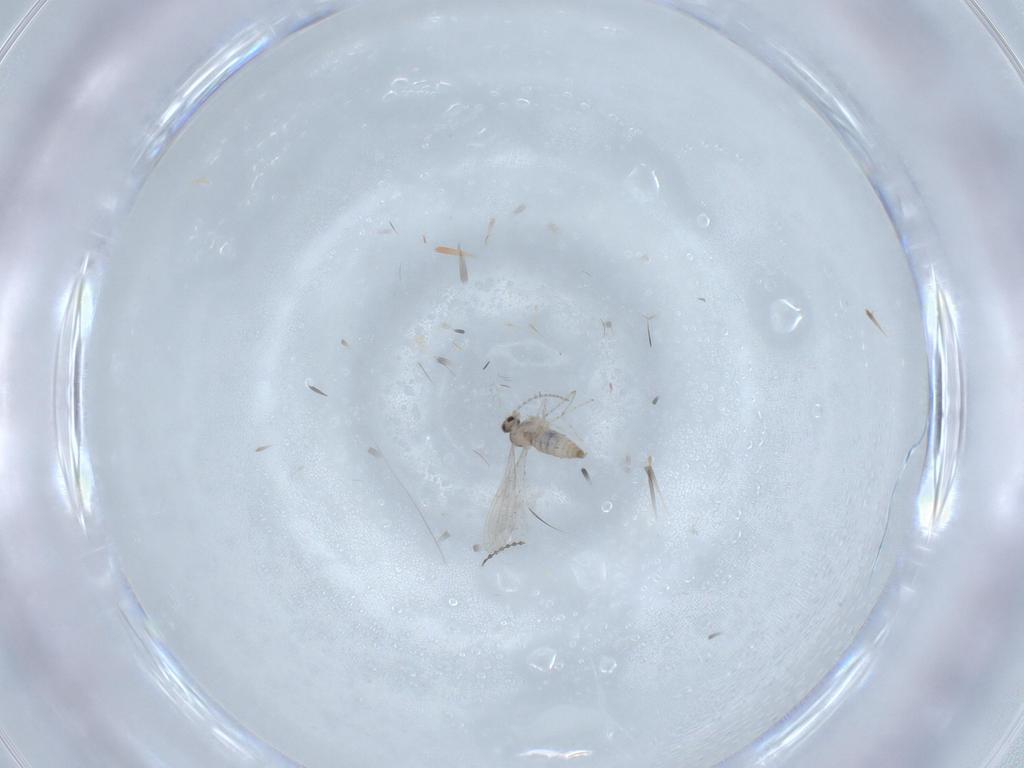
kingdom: Animalia
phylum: Arthropoda
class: Insecta
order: Diptera
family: Cecidomyiidae
